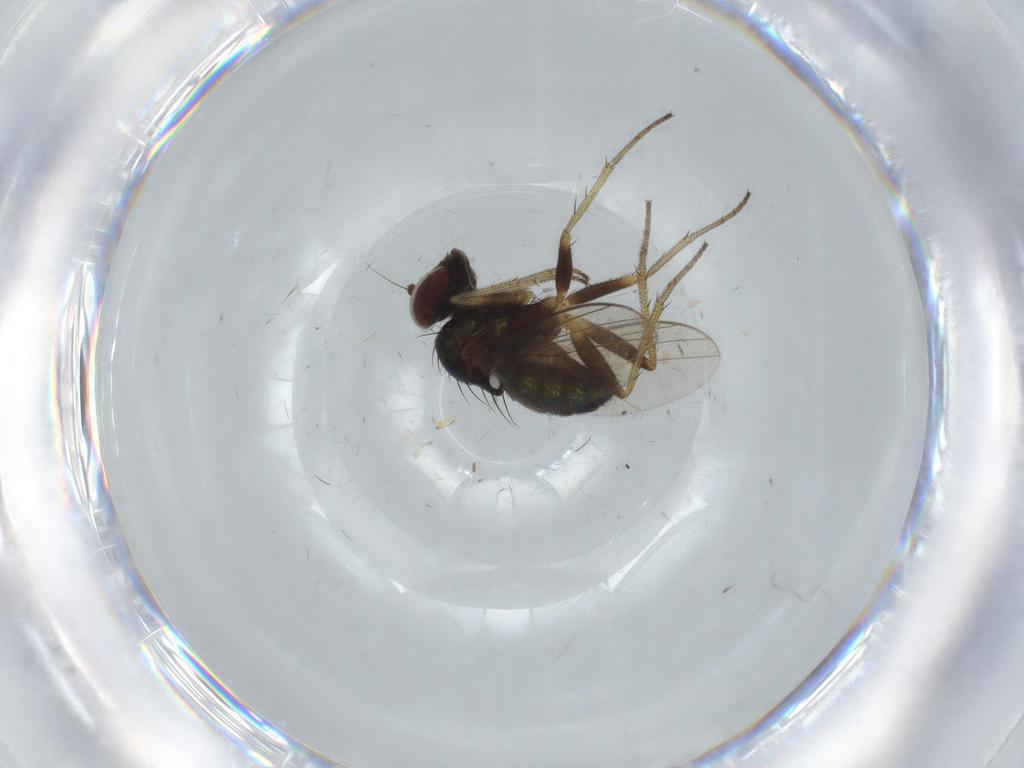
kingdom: Animalia
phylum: Arthropoda
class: Insecta
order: Diptera
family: Dolichopodidae
